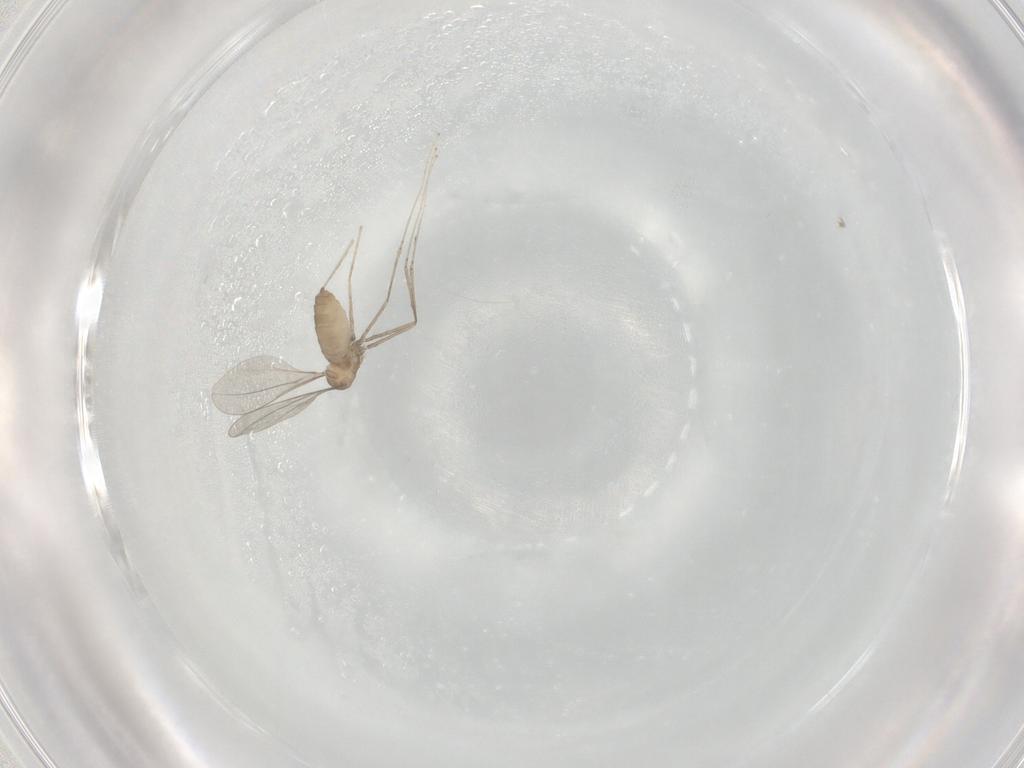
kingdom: Animalia
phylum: Arthropoda
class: Insecta
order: Diptera
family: Cecidomyiidae
